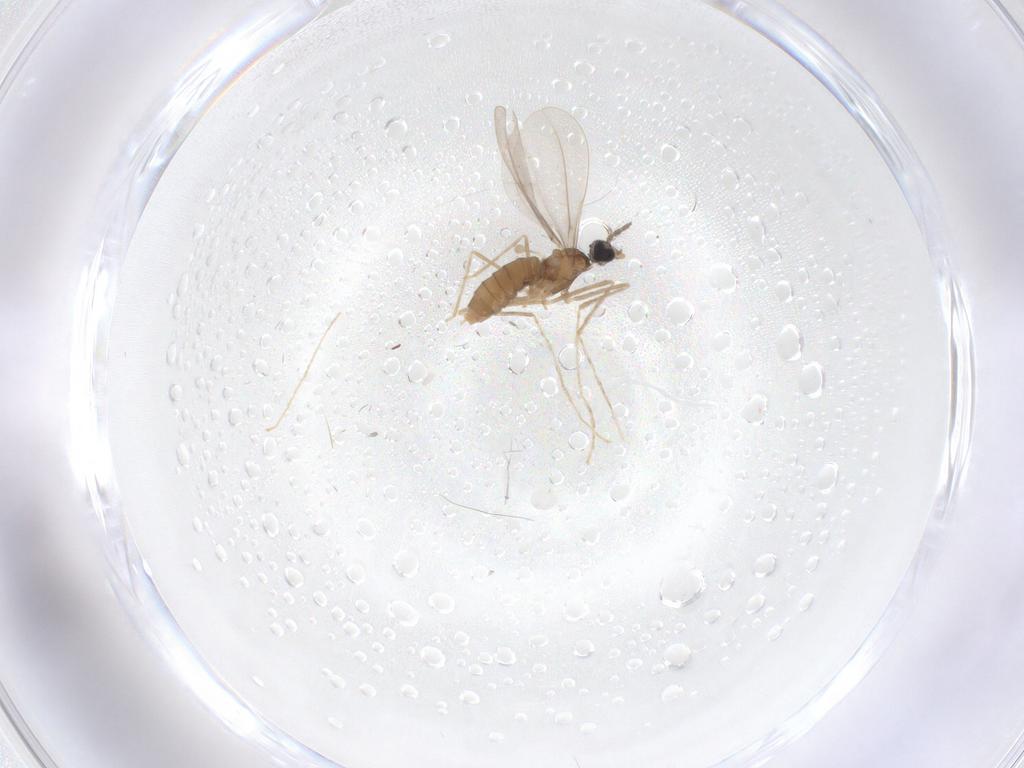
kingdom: Animalia
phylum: Arthropoda
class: Insecta
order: Diptera
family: Cecidomyiidae
